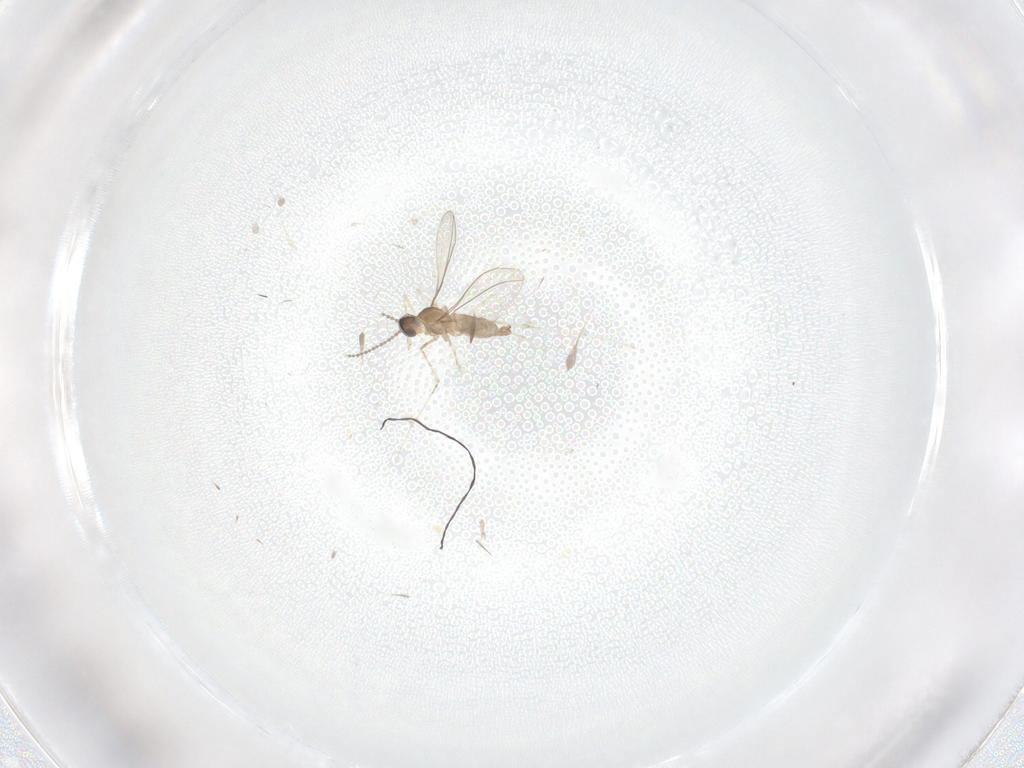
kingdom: Animalia
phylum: Arthropoda
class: Insecta
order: Diptera
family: Cecidomyiidae
